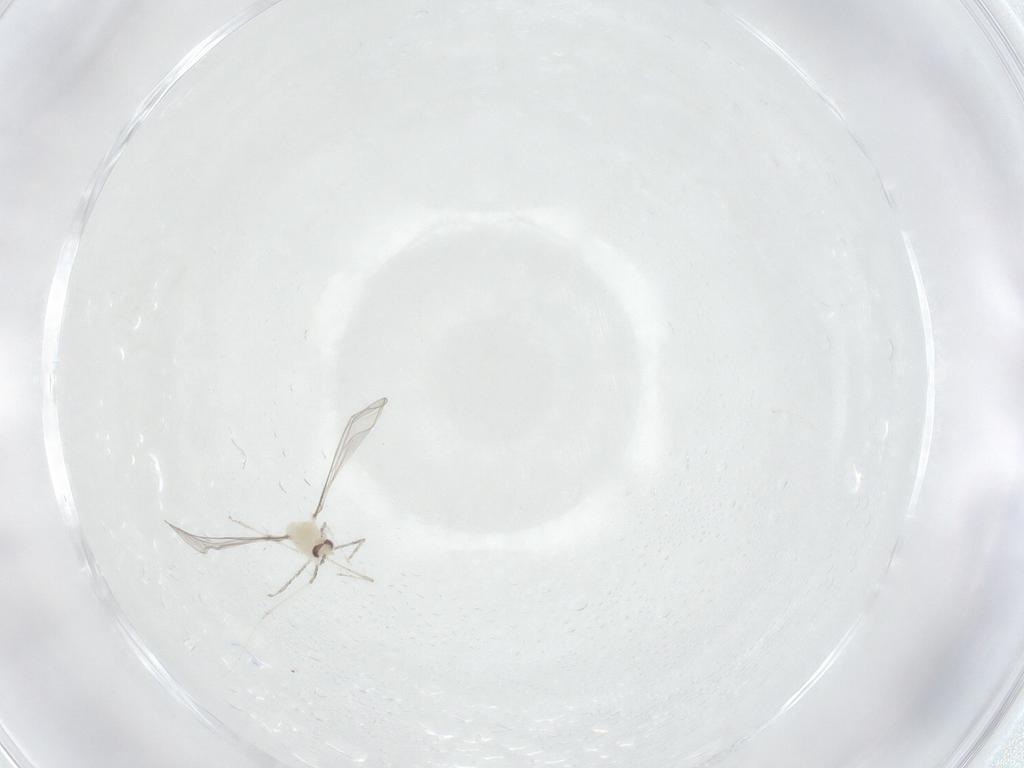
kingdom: Animalia
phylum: Arthropoda
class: Insecta
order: Diptera
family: Cecidomyiidae
